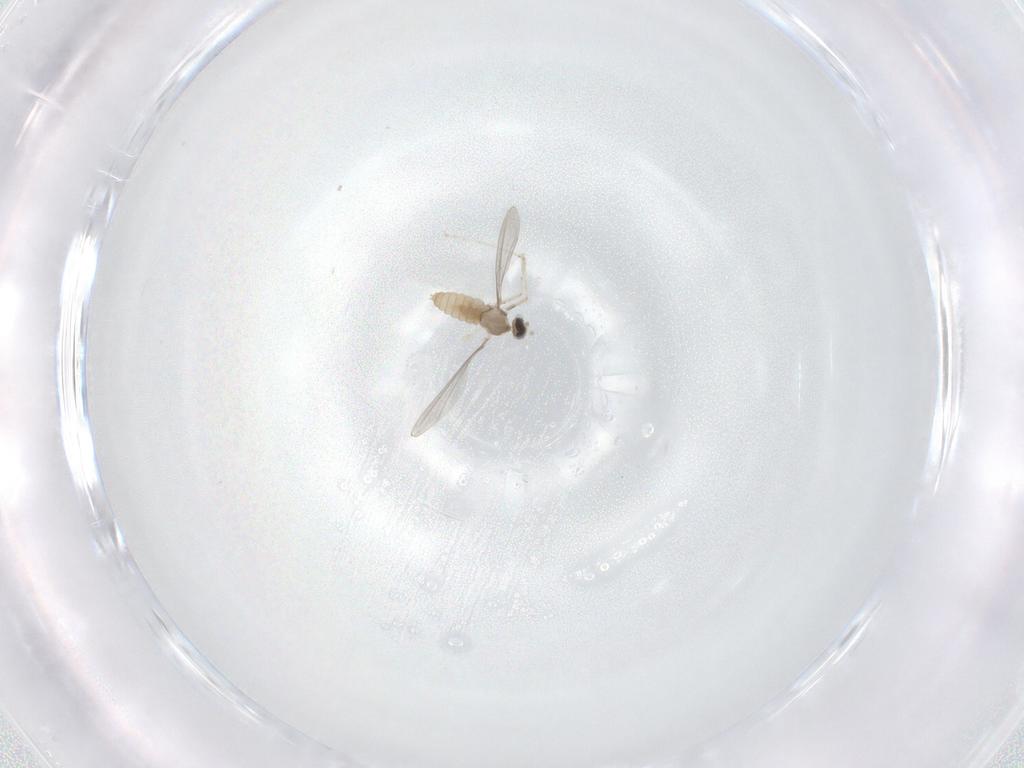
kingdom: Animalia
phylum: Arthropoda
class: Insecta
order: Diptera
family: Cecidomyiidae
